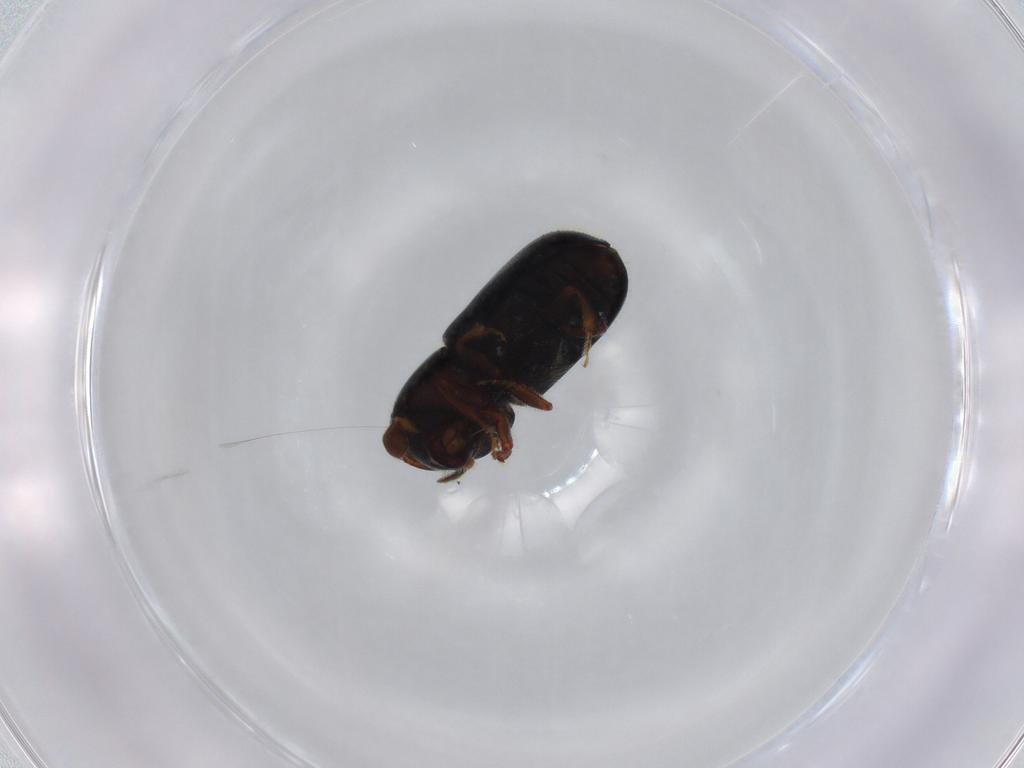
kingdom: Animalia
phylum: Arthropoda
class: Insecta
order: Coleoptera
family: Curculionidae
